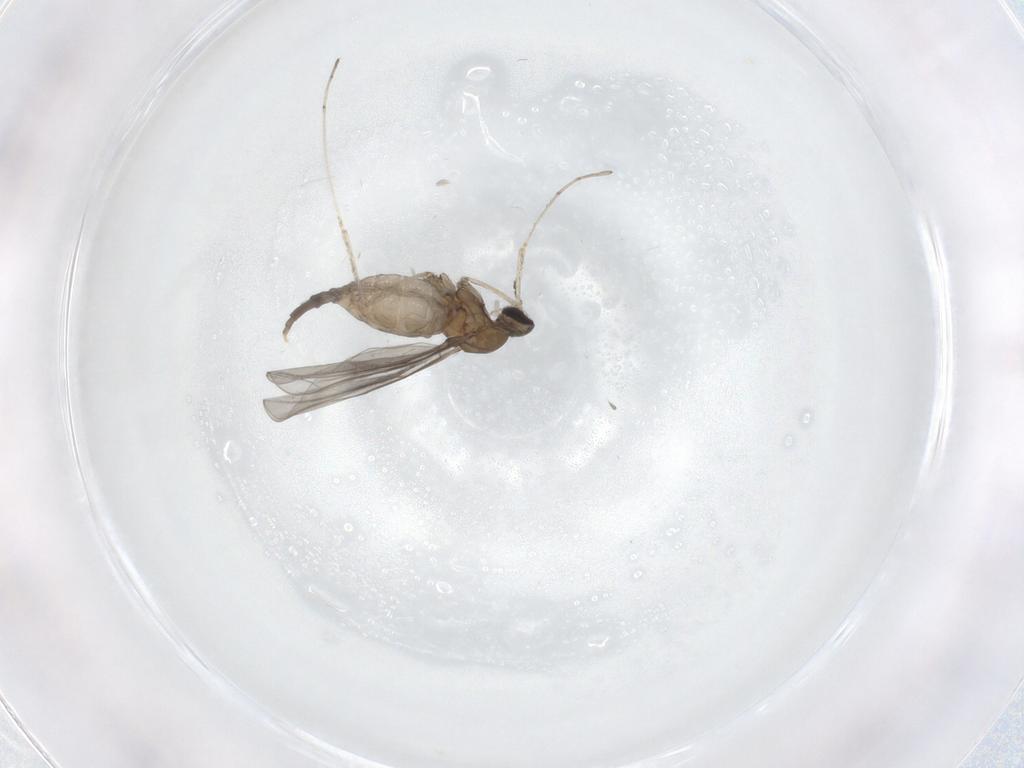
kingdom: Animalia
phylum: Arthropoda
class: Insecta
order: Diptera
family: Cecidomyiidae
